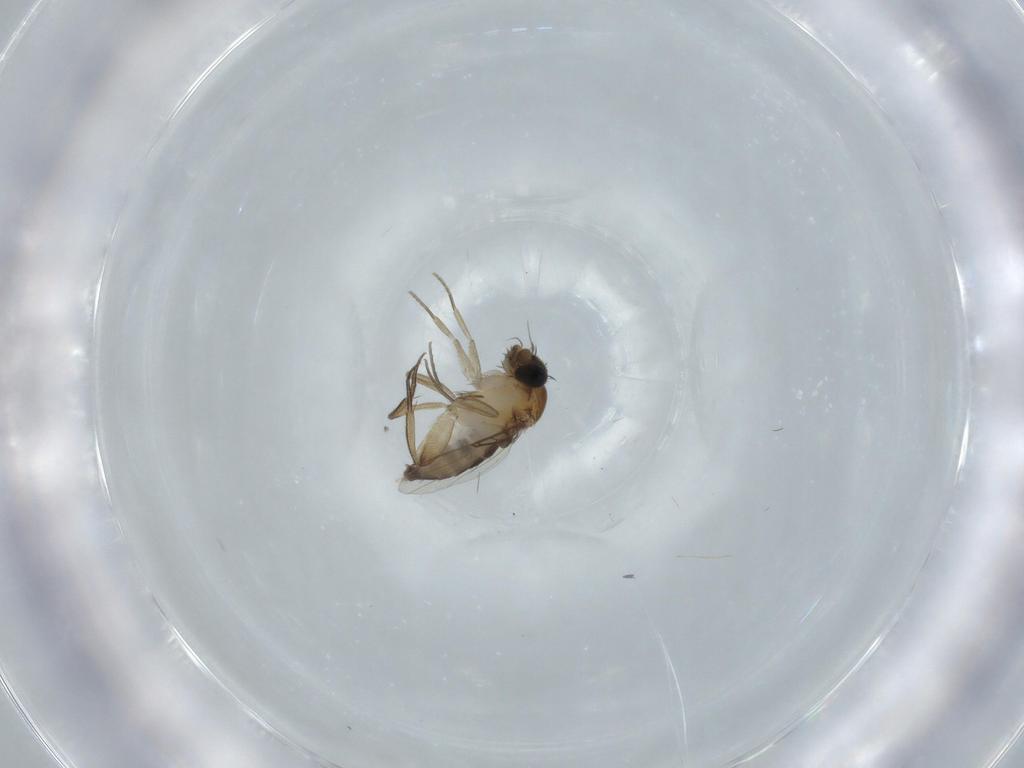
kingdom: Animalia
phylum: Arthropoda
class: Insecta
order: Diptera
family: Phoridae
